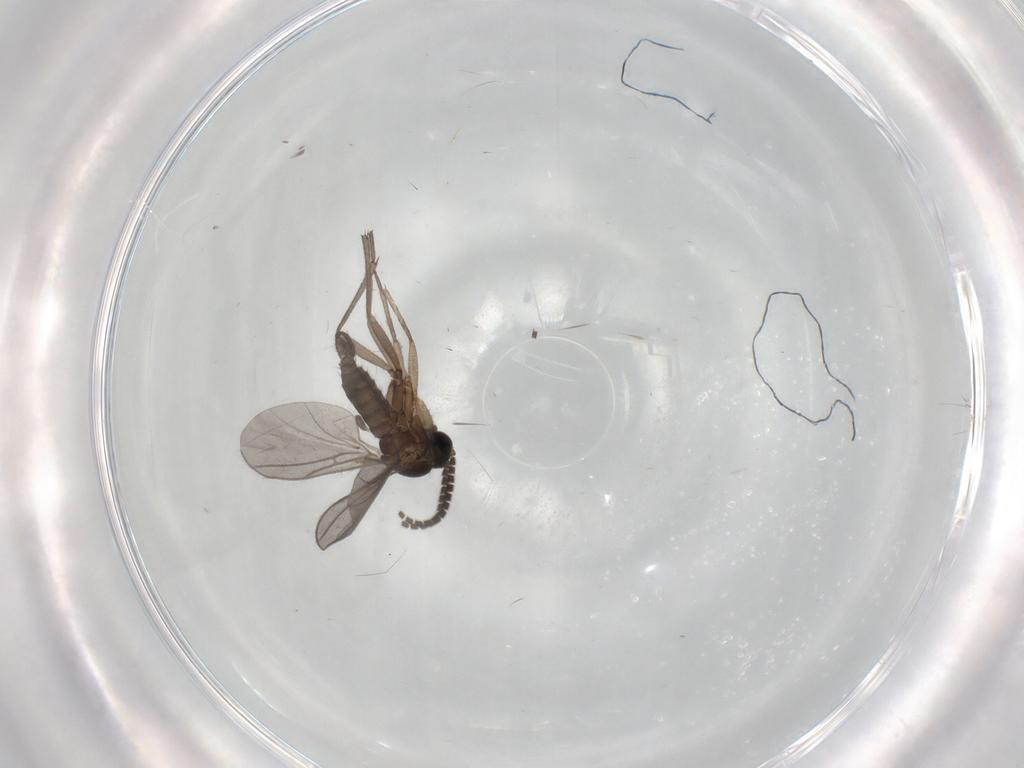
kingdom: Animalia
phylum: Arthropoda
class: Insecta
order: Diptera
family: Sciaridae
